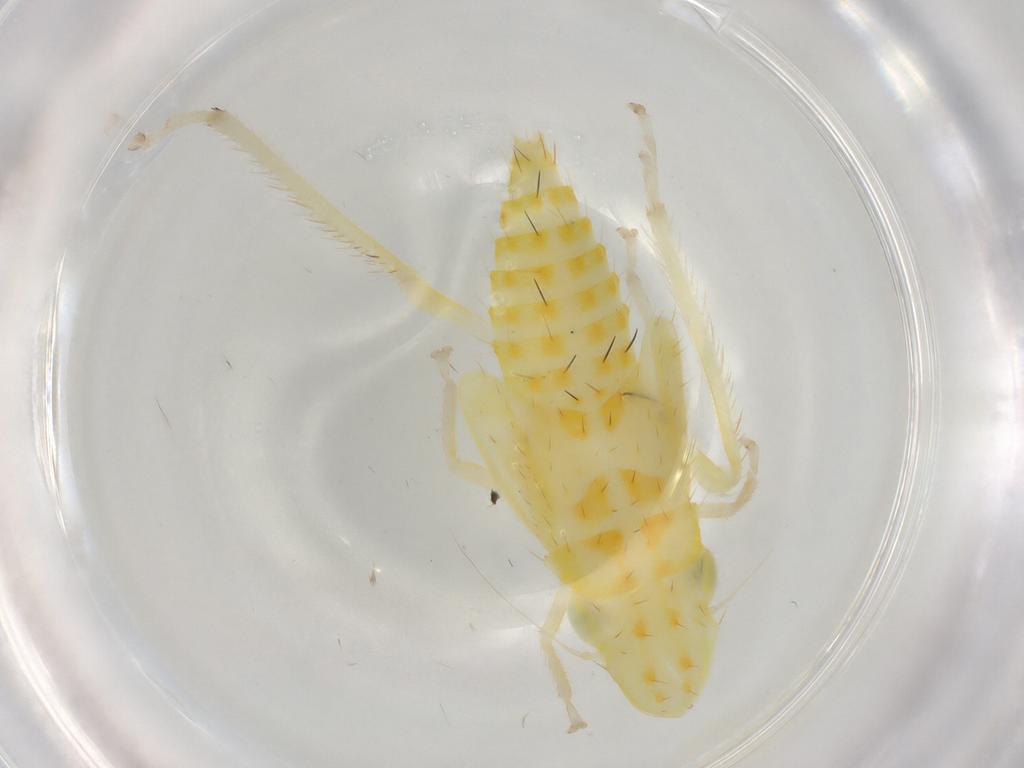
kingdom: Animalia
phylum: Arthropoda
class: Insecta
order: Hemiptera
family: Cicadellidae
